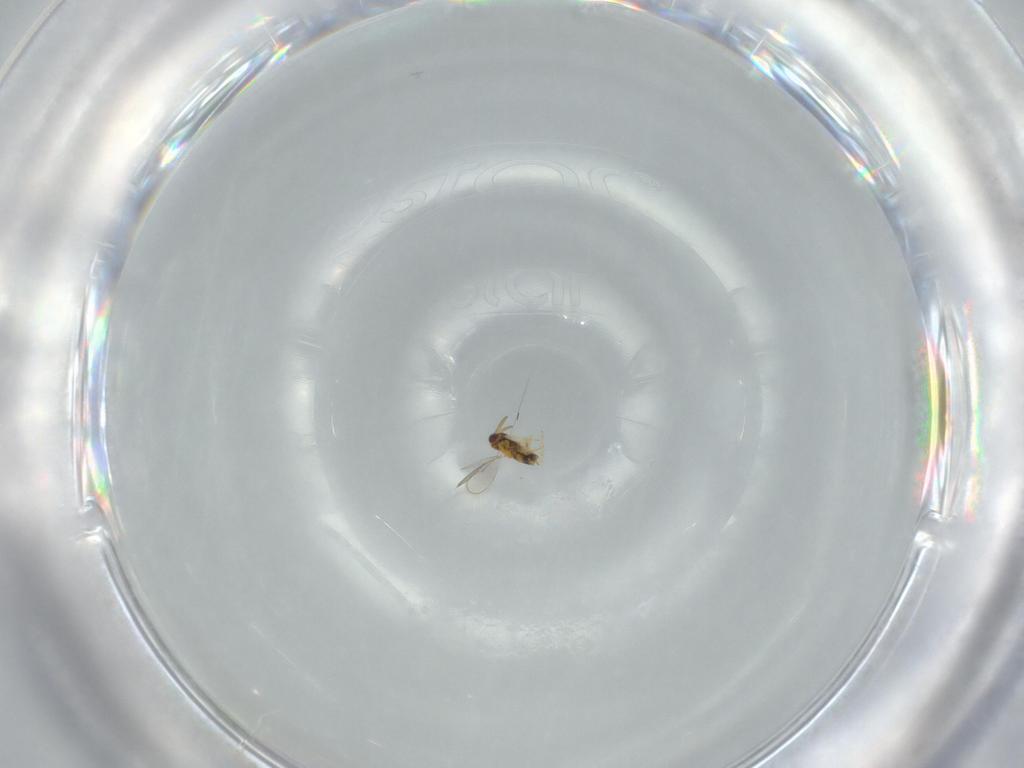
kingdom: Animalia
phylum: Arthropoda
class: Insecta
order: Hymenoptera
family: Aphelinidae
